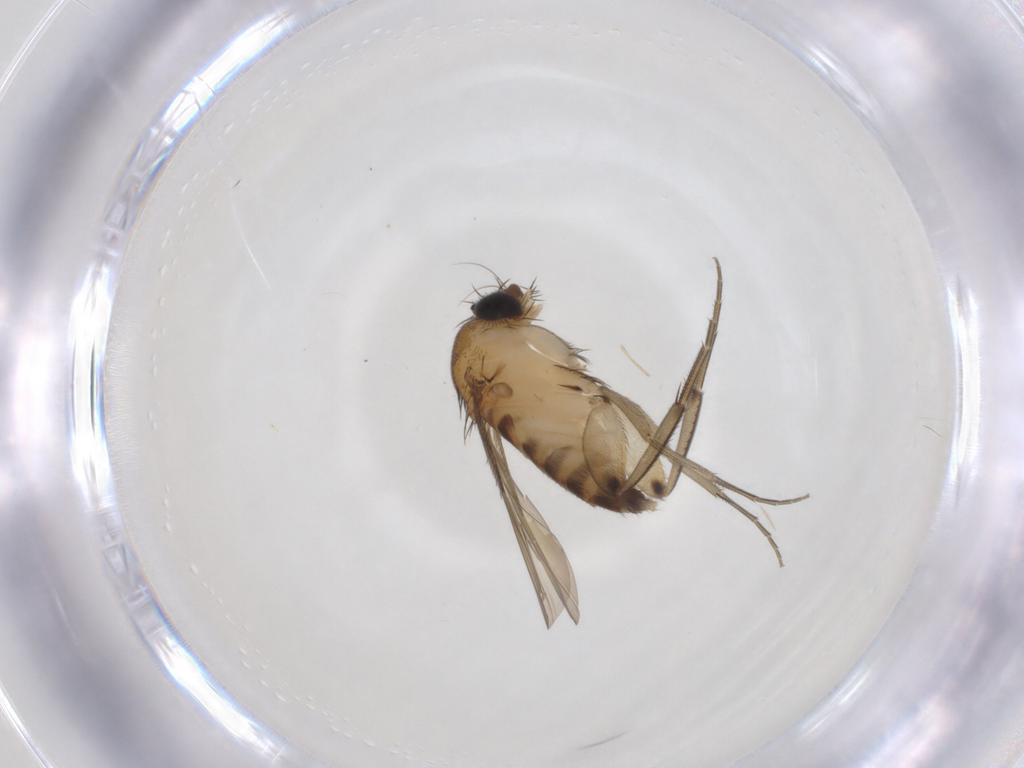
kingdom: Animalia
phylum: Arthropoda
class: Insecta
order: Diptera
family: Phoridae
